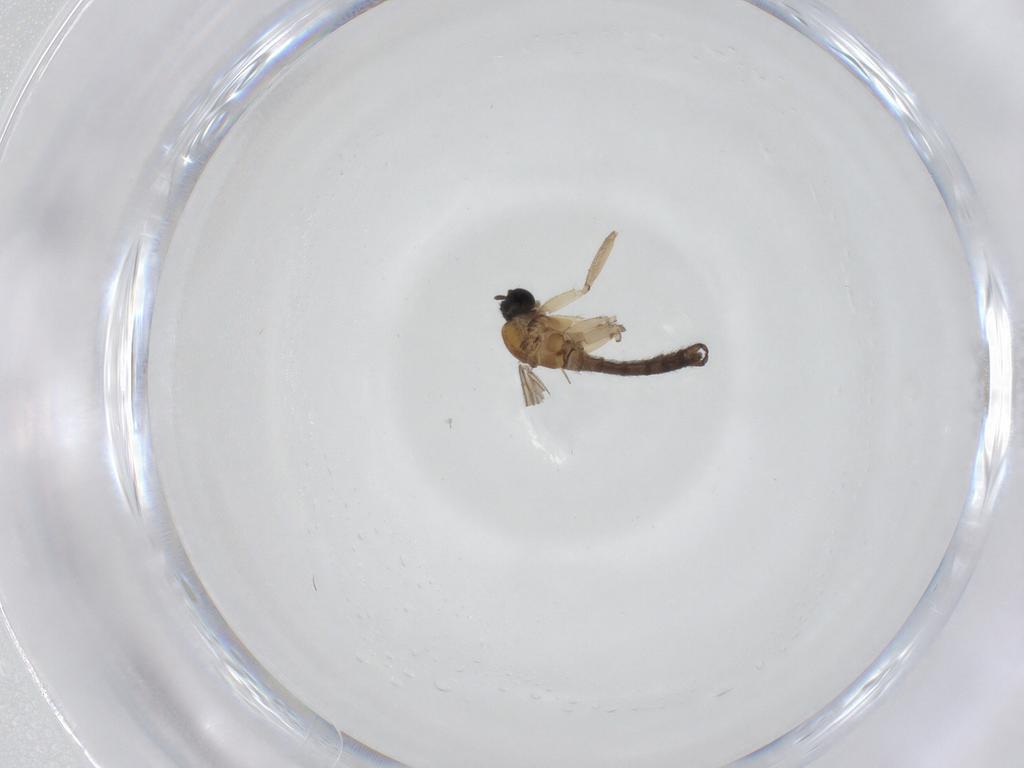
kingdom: Animalia
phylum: Arthropoda
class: Insecta
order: Diptera
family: Sciaridae
